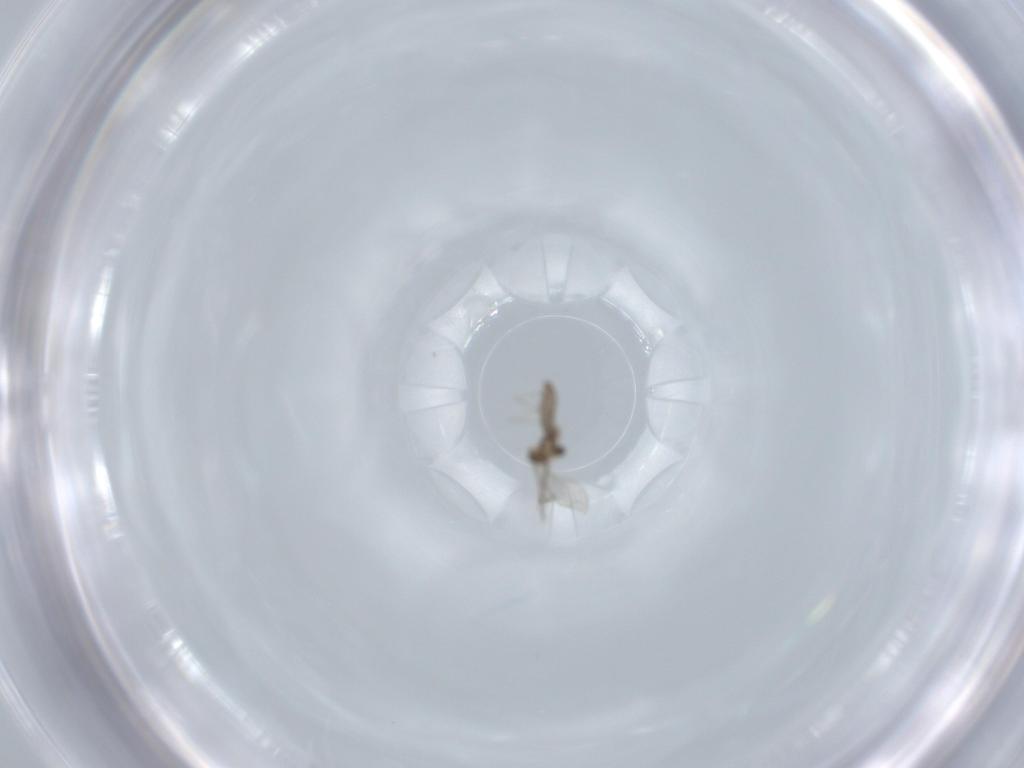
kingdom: Animalia
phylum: Arthropoda
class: Insecta
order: Diptera
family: Cecidomyiidae
